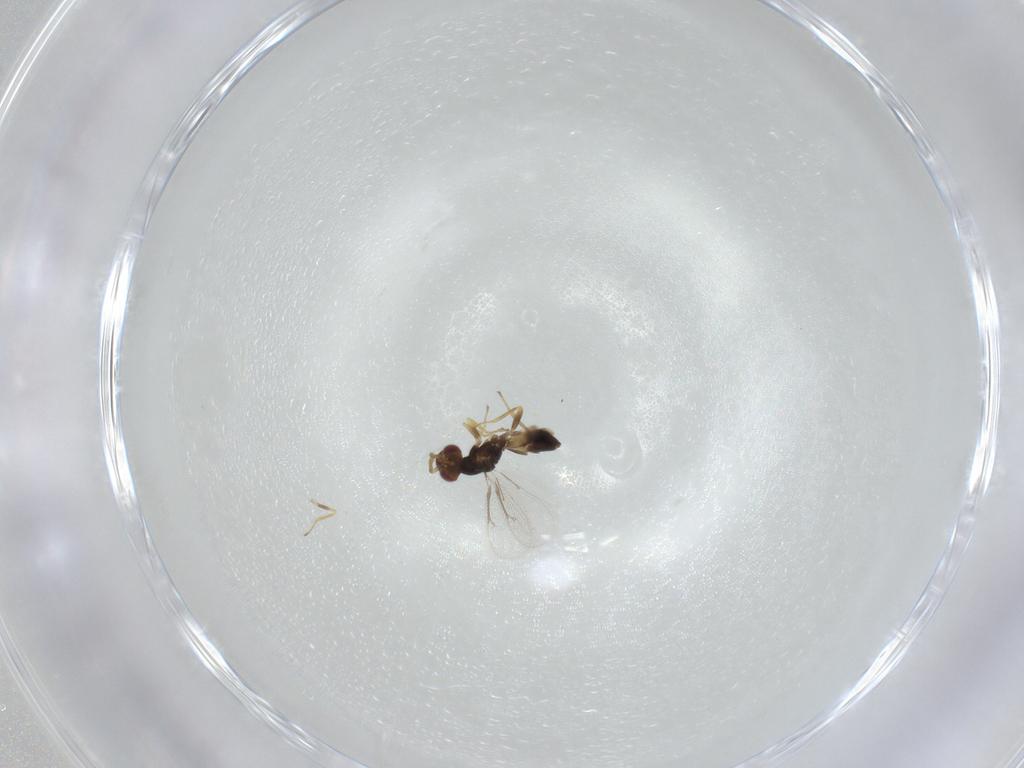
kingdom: Animalia
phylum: Arthropoda
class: Insecta
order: Hymenoptera
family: Eulophidae
